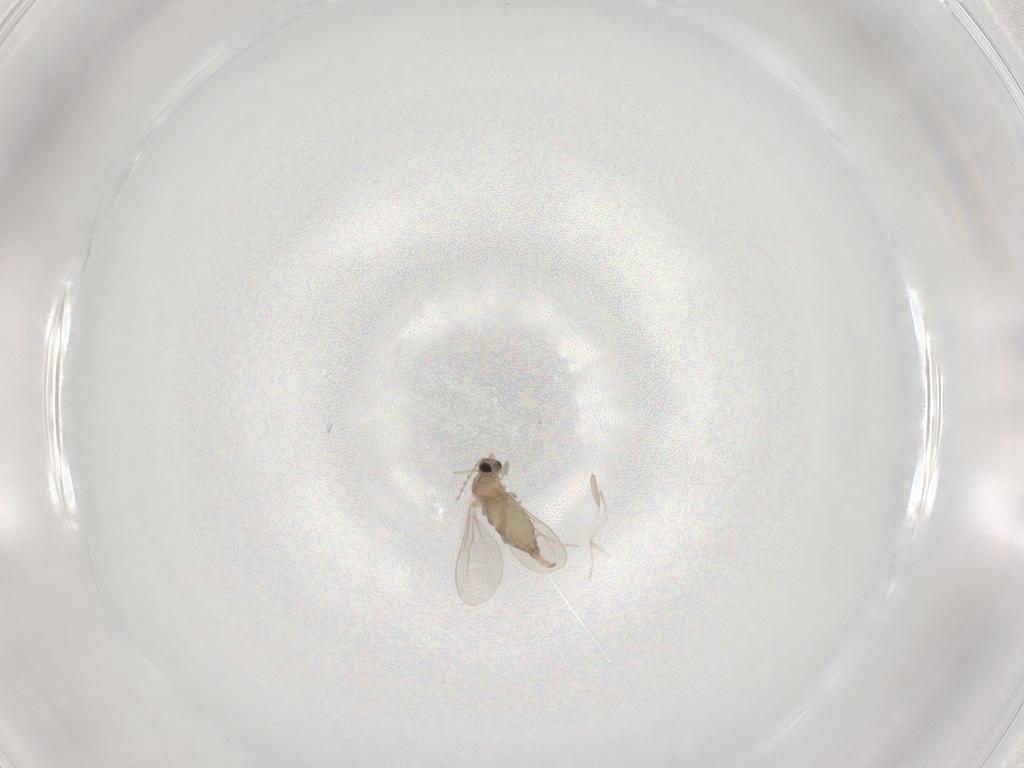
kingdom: Animalia
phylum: Arthropoda
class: Insecta
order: Diptera
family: Cecidomyiidae
